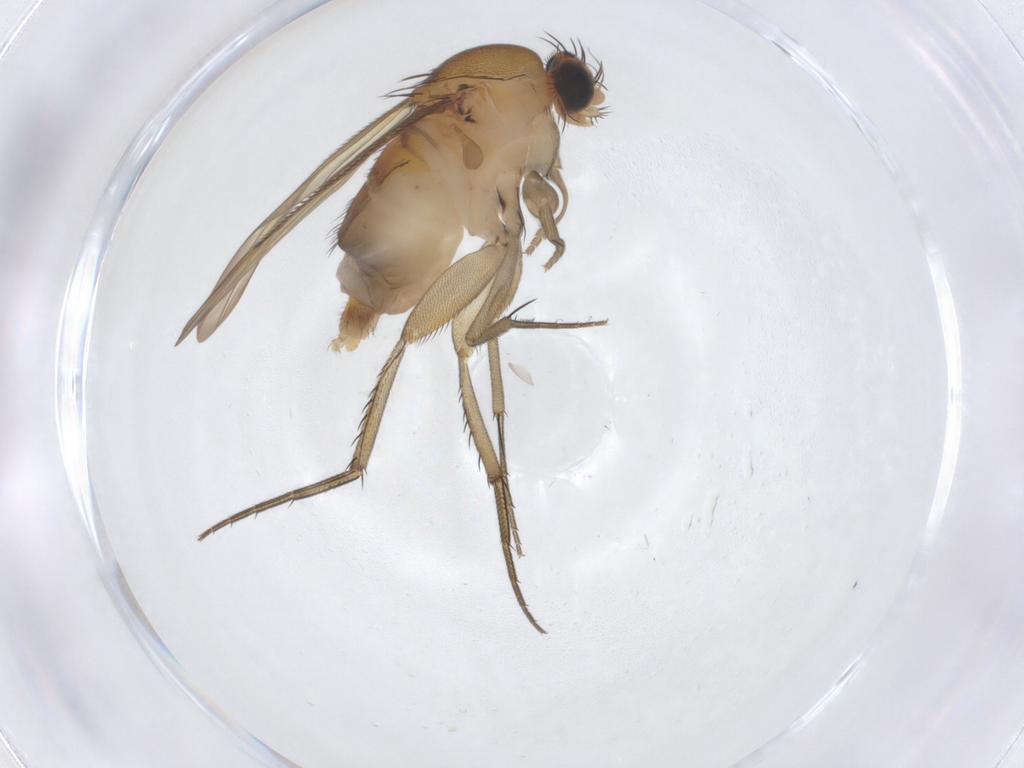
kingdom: Animalia
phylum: Arthropoda
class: Insecta
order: Diptera
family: Phoridae
